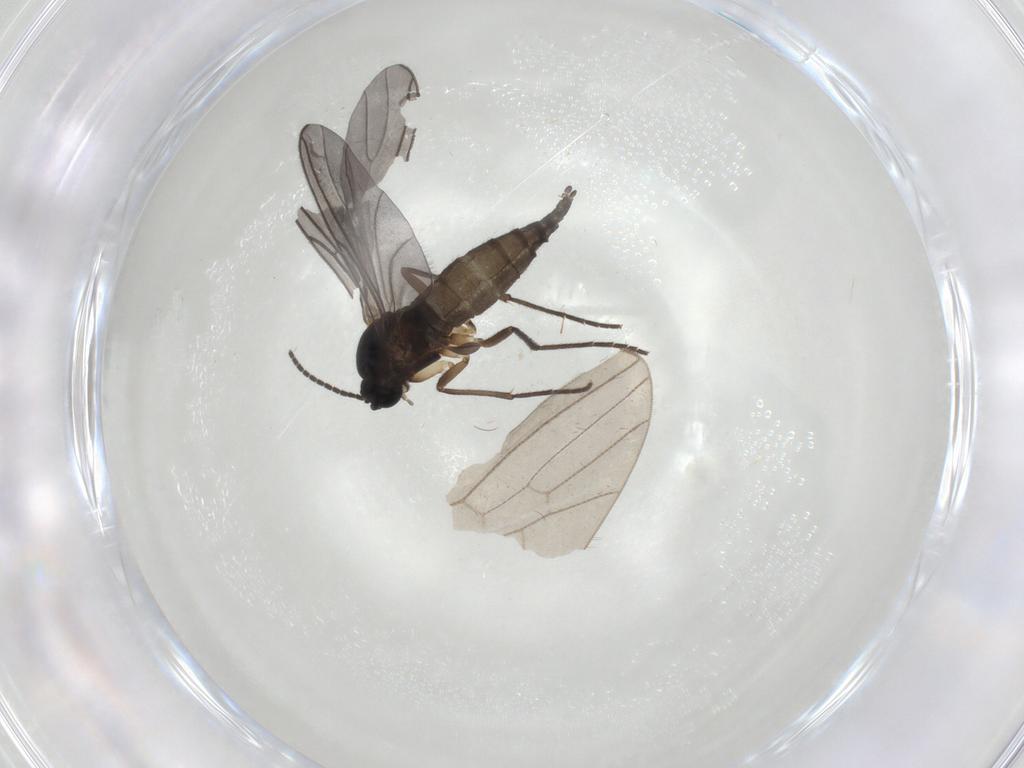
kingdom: Animalia
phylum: Arthropoda
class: Insecta
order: Diptera
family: Sciaridae
